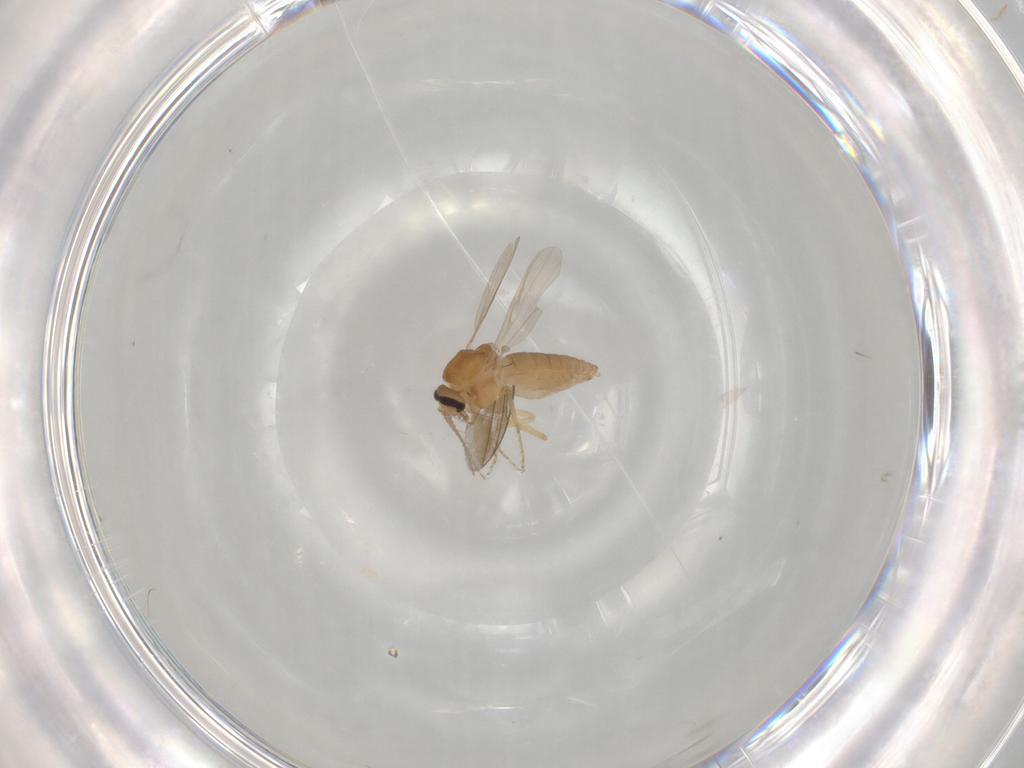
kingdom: Animalia
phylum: Arthropoda
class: Insecta
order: Diptera
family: Ceratopogonidae
